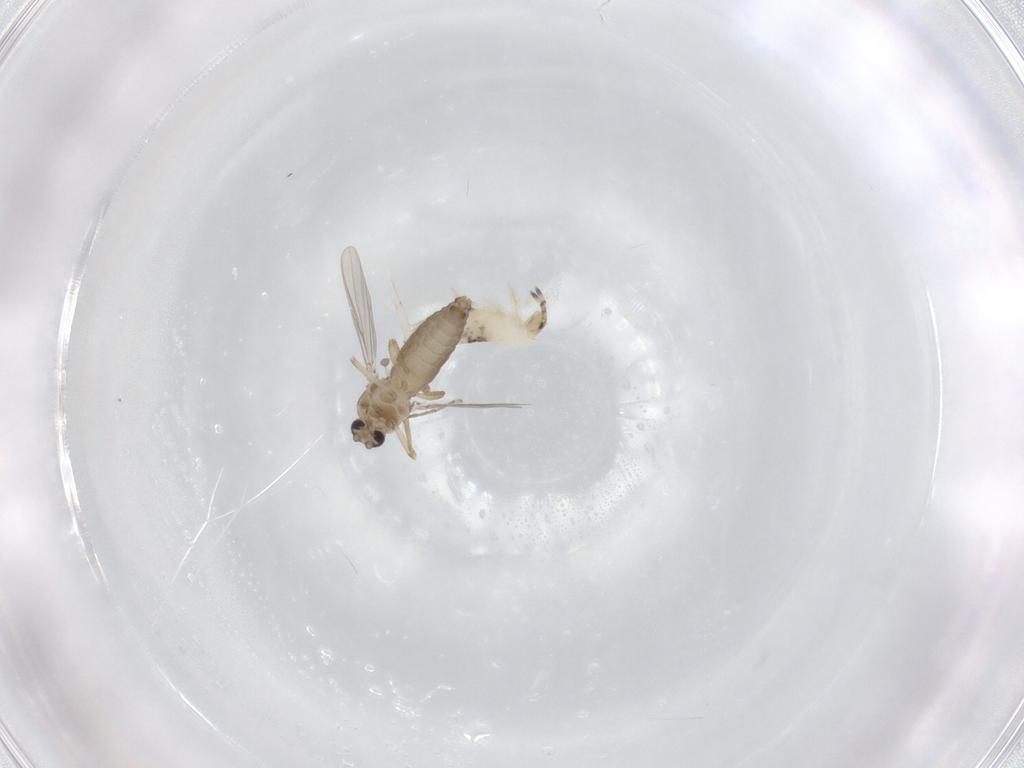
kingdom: Animalia
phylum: Arthropoda
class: Insecta
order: Diptera
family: Ceratopogonidae
